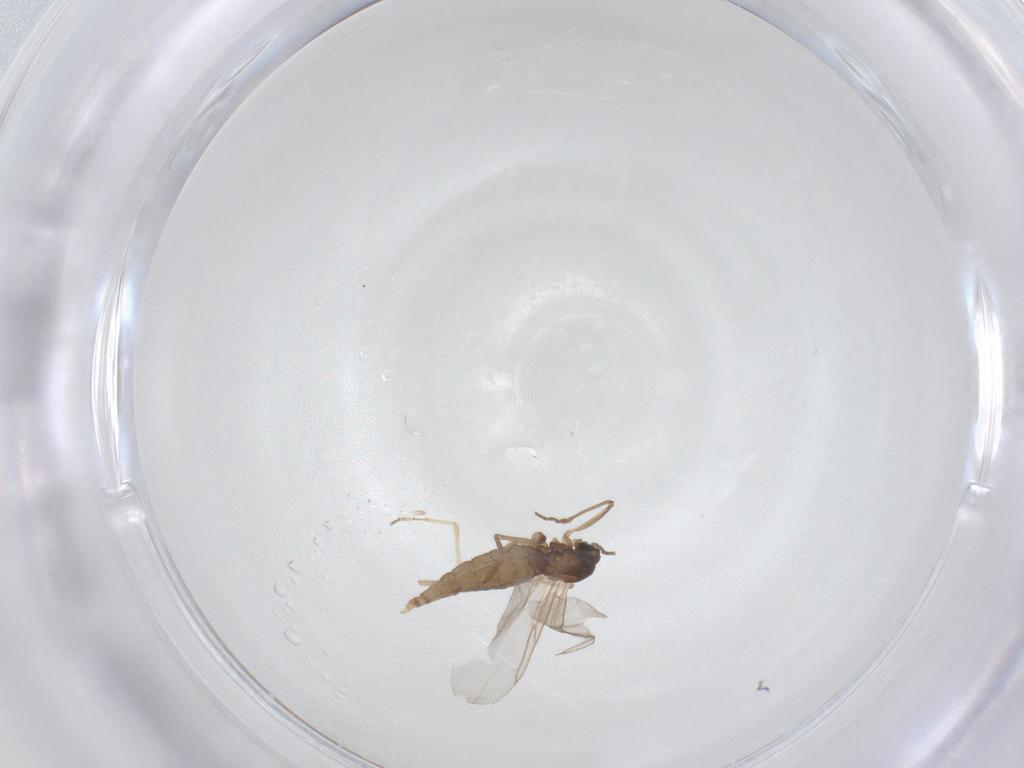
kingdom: Animalia
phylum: Arthropoda
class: Insecta
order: Diptera
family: Cecidomyiidae
